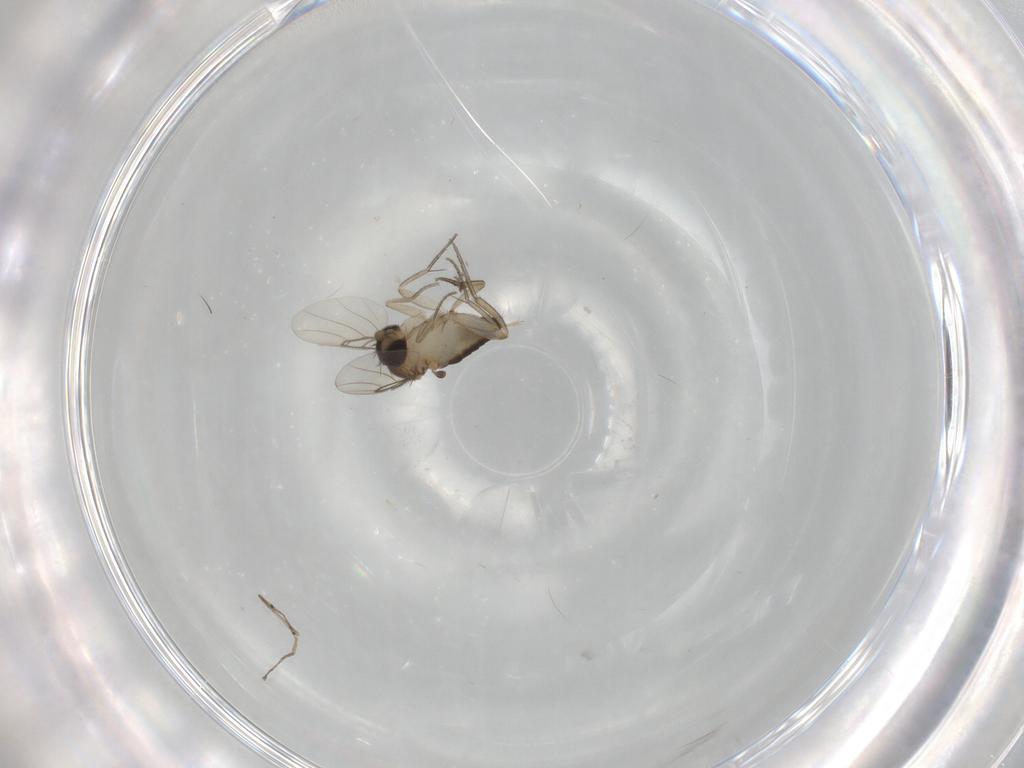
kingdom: Animalia
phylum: Arthropoda
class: Insecta
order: Diptera
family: Phoridae
